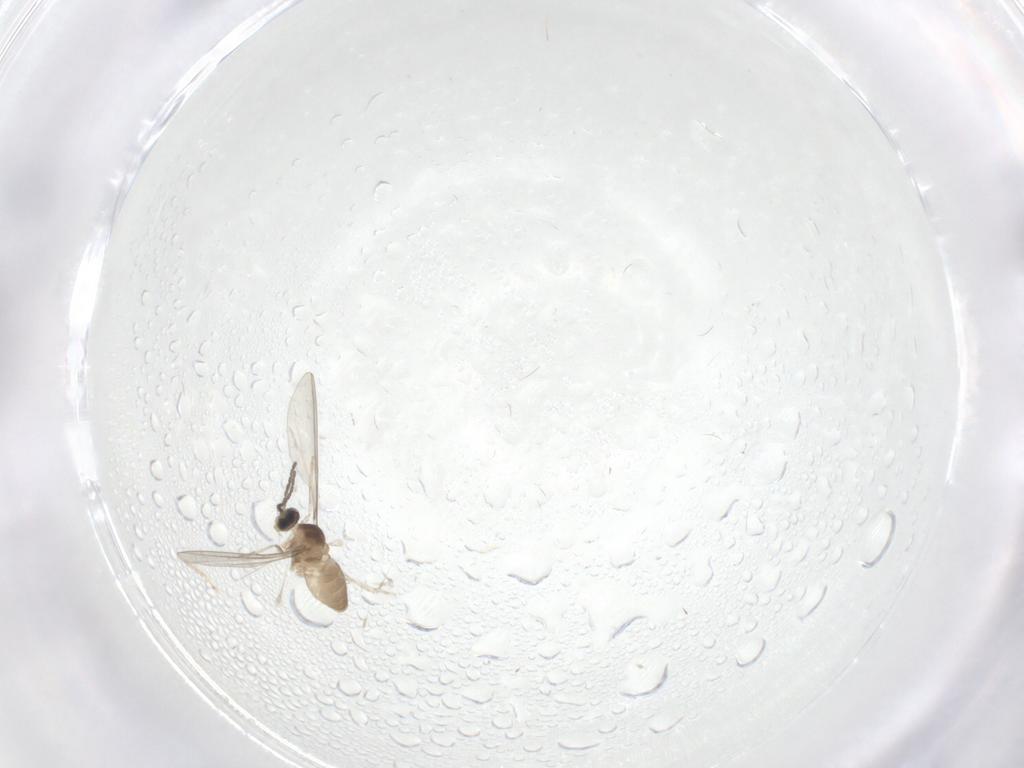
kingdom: Animalia
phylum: Arthropoda
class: Insecta
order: Diptera
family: Cecidomyiidae
